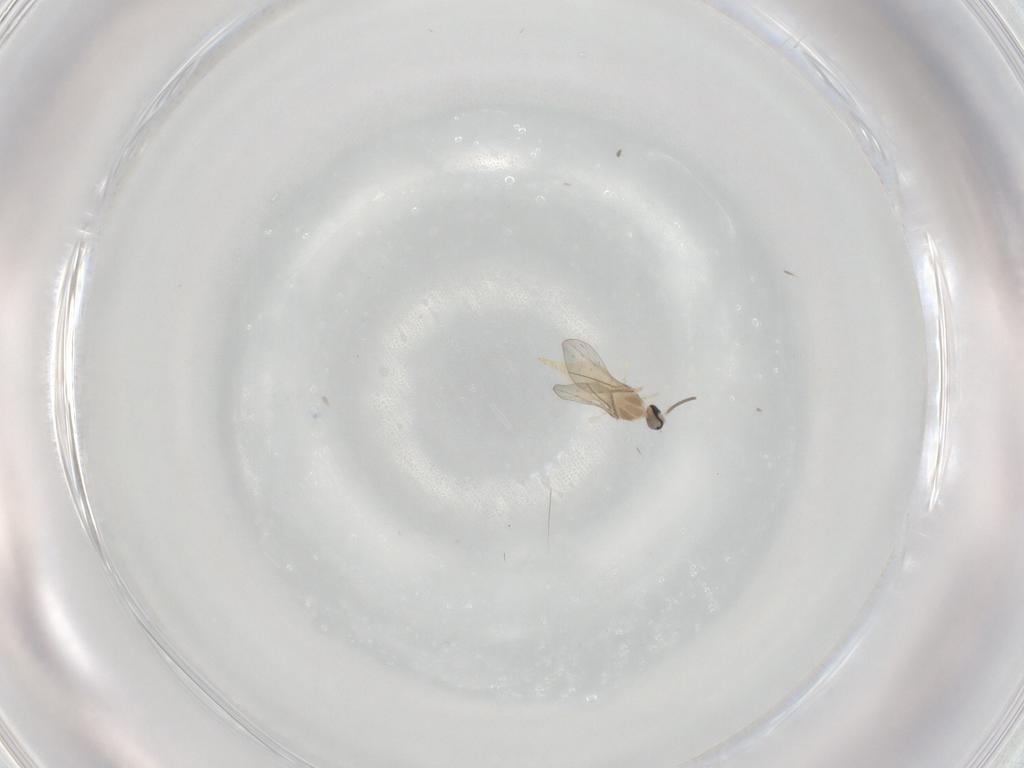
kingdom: Animalia
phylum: Arthropoda
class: Insecta
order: Diptera
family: Cecidomyiidae
